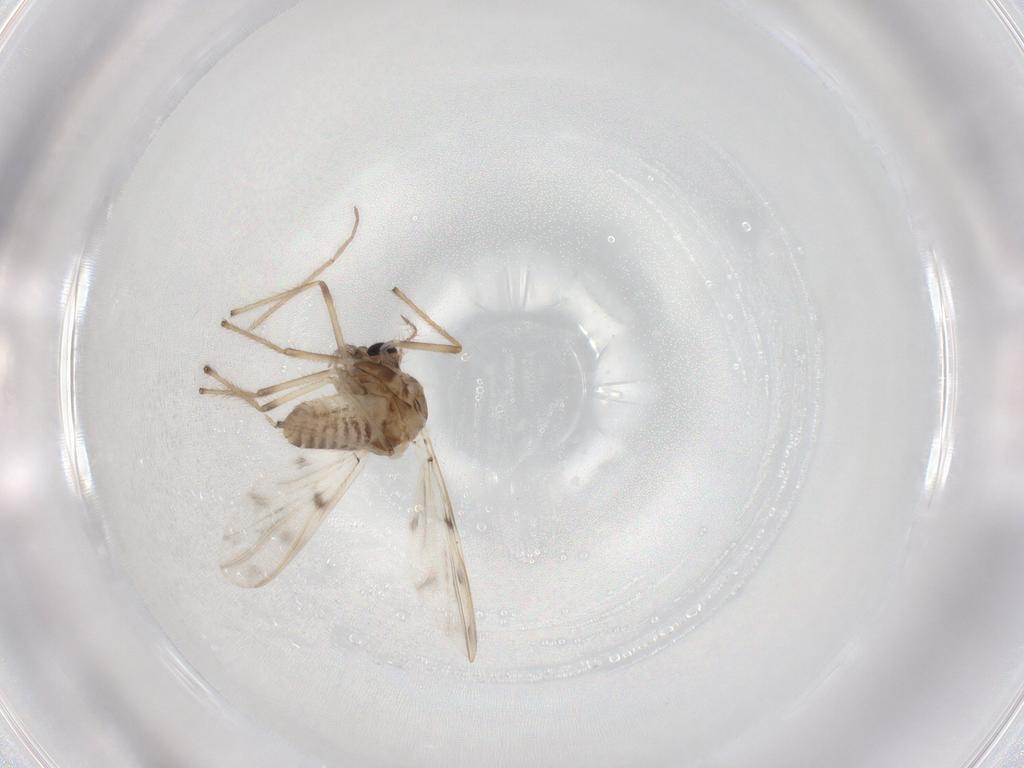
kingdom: Animalia
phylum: Arthropoda
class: Insecta
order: Diptera
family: Chironomidae
